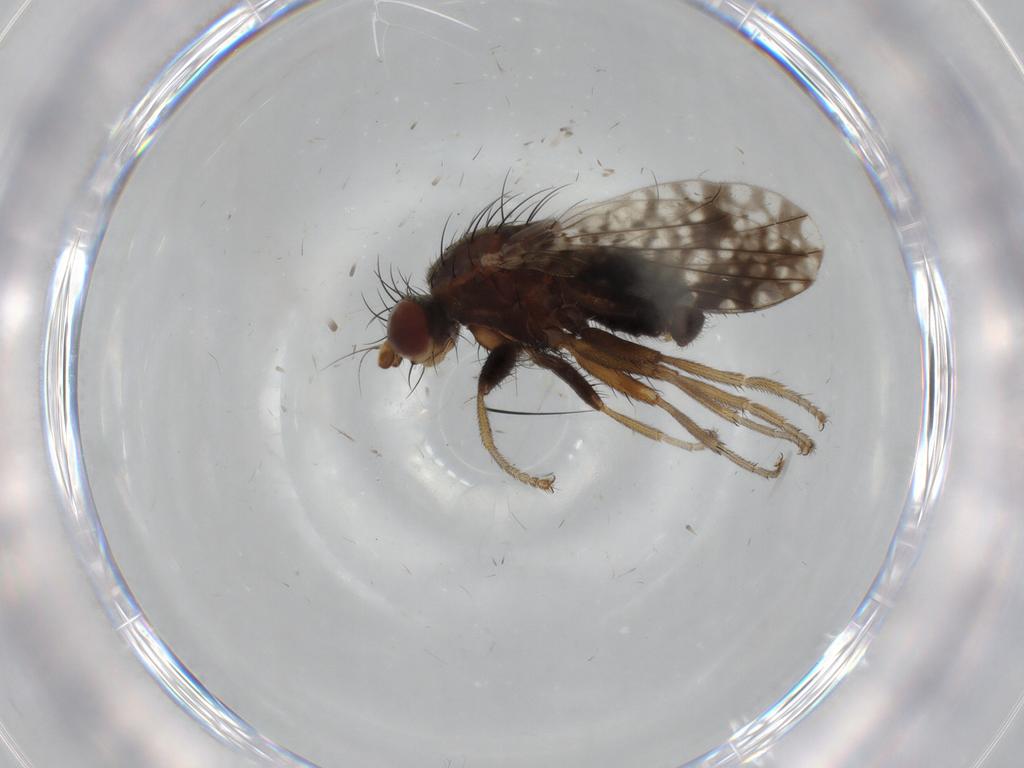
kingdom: Animalia
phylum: Arthropoda
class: Insecta
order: Diptera
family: Tephritidae
